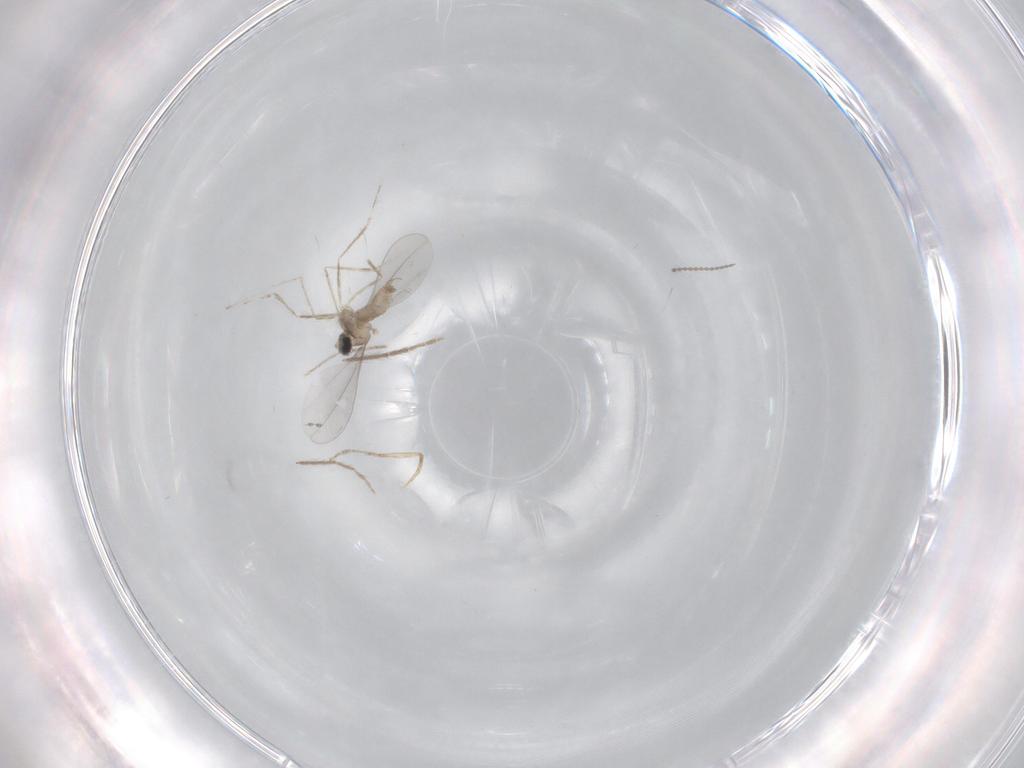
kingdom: Animalia
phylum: Arthropoda
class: Insecta
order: Diptera
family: Chironomidae
